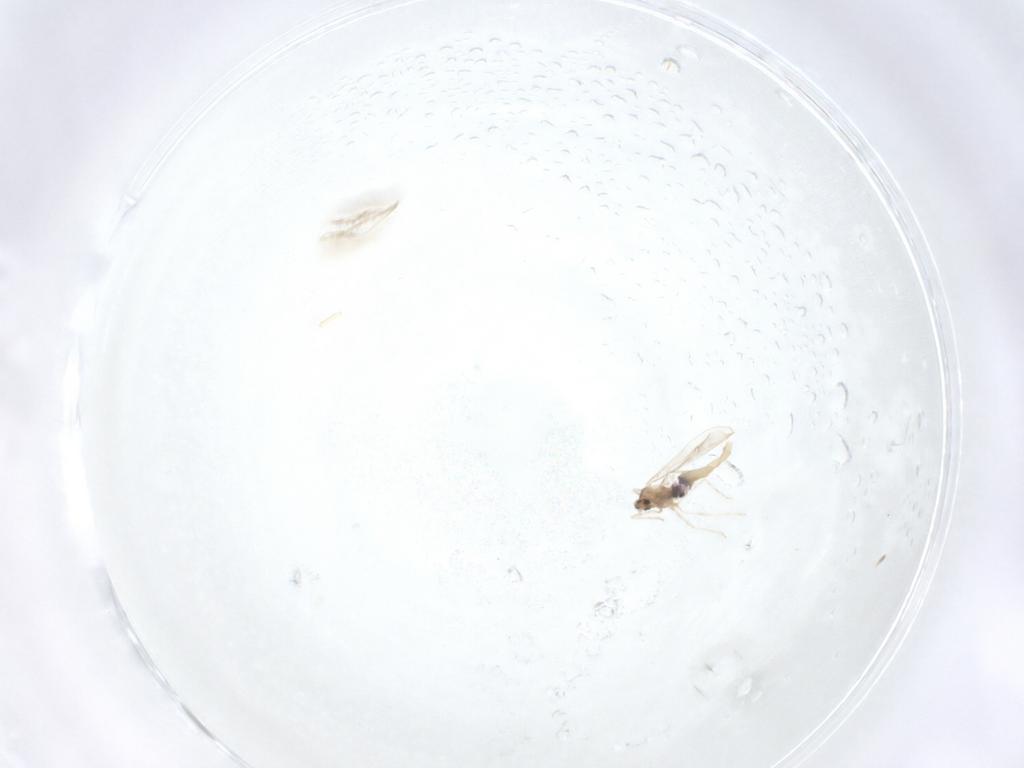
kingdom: Animalia
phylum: Arthropoda
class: Insecta
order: Diptera
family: Cecidomyiidae
